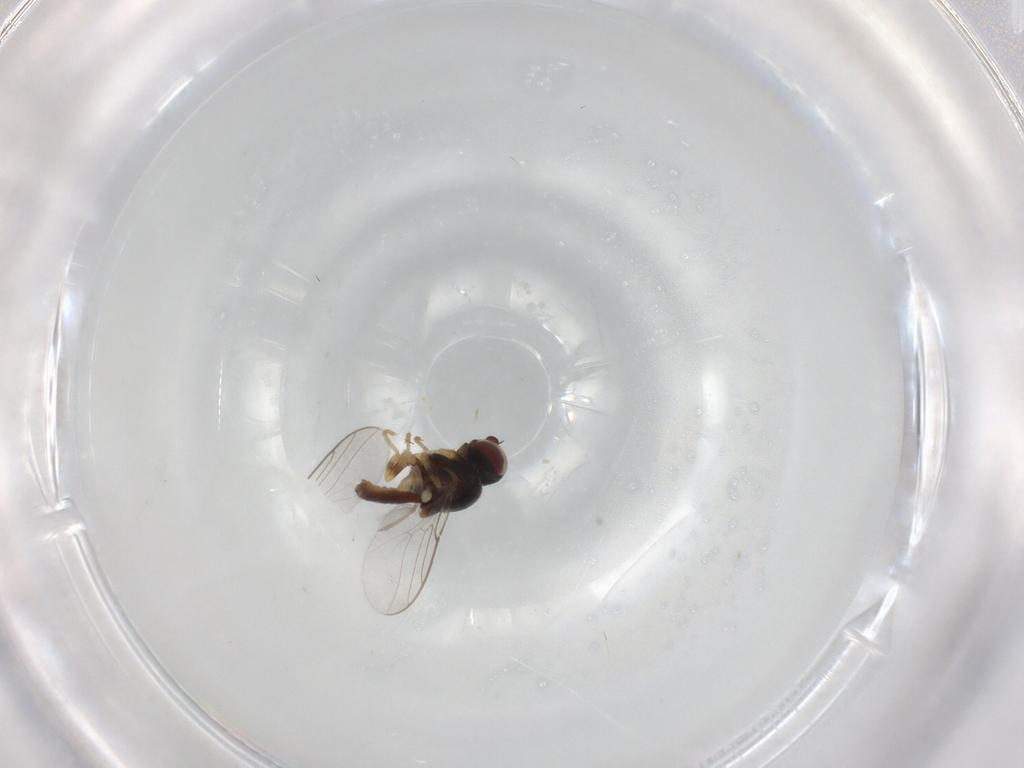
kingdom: Animalia
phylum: Arthropoda
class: Insecta
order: Diptera
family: Chloropidae
